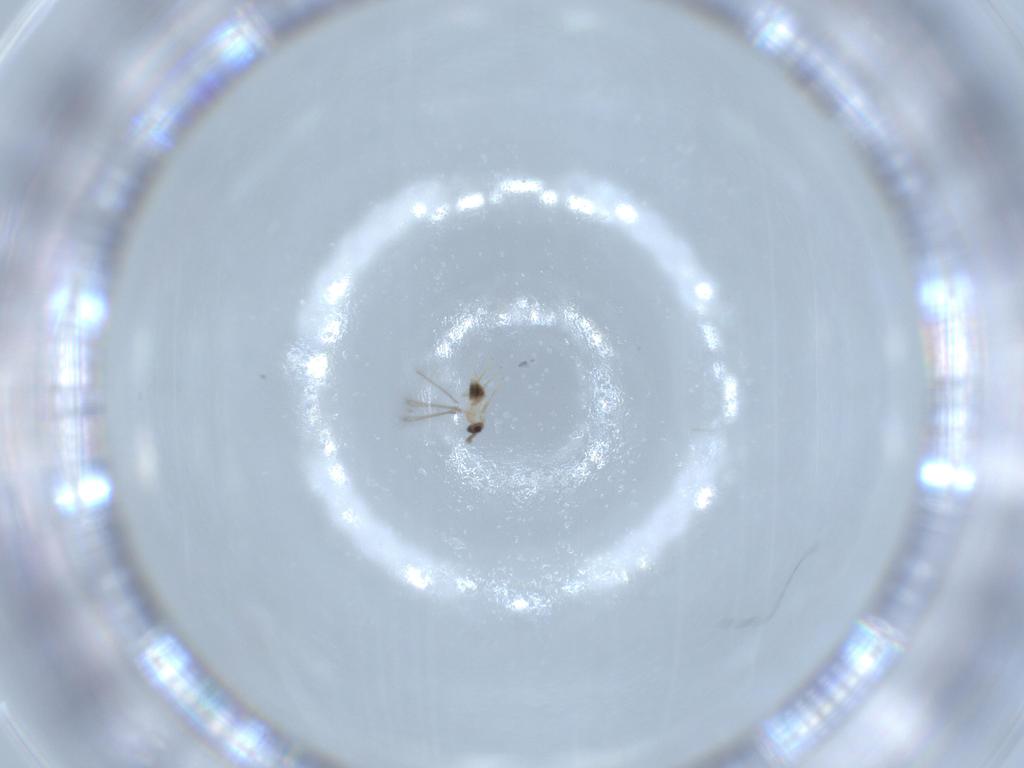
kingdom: Animalia
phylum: Arthropoda
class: Insecta
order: Hymenoptera
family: Mymaridae
